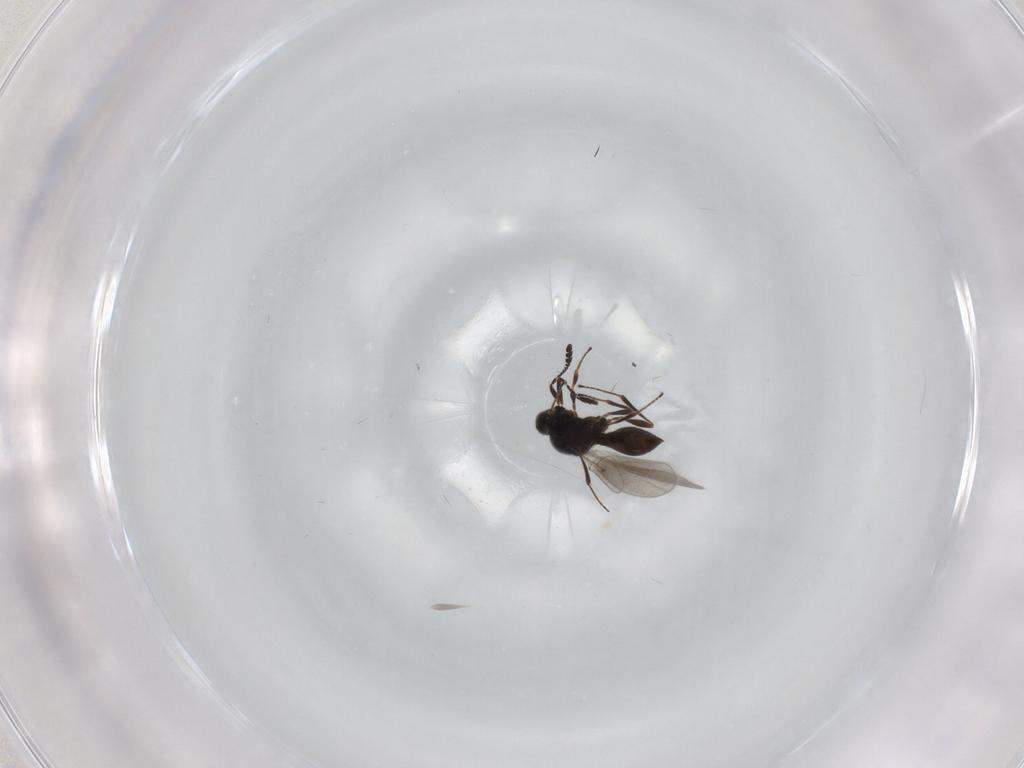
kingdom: Animalia
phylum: Arthropoda
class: Insecta
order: Hymenoptera
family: Platygastridae
